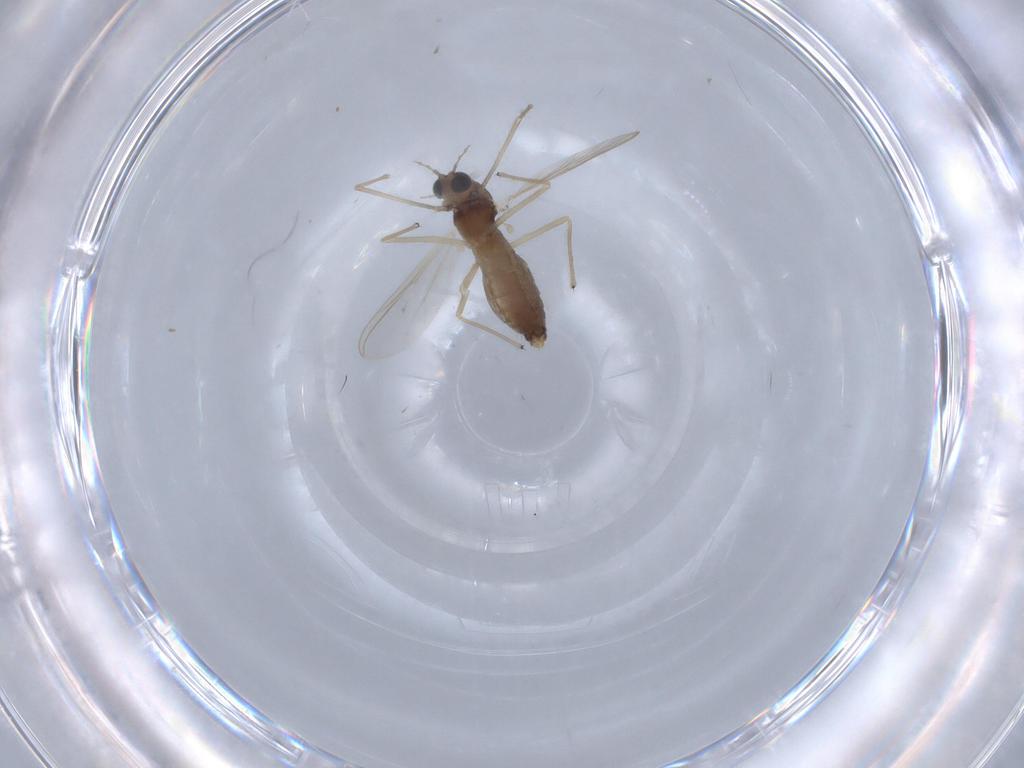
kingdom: Animalia
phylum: Arthropoda
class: Insecta
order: Diptera
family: Chironomidae
